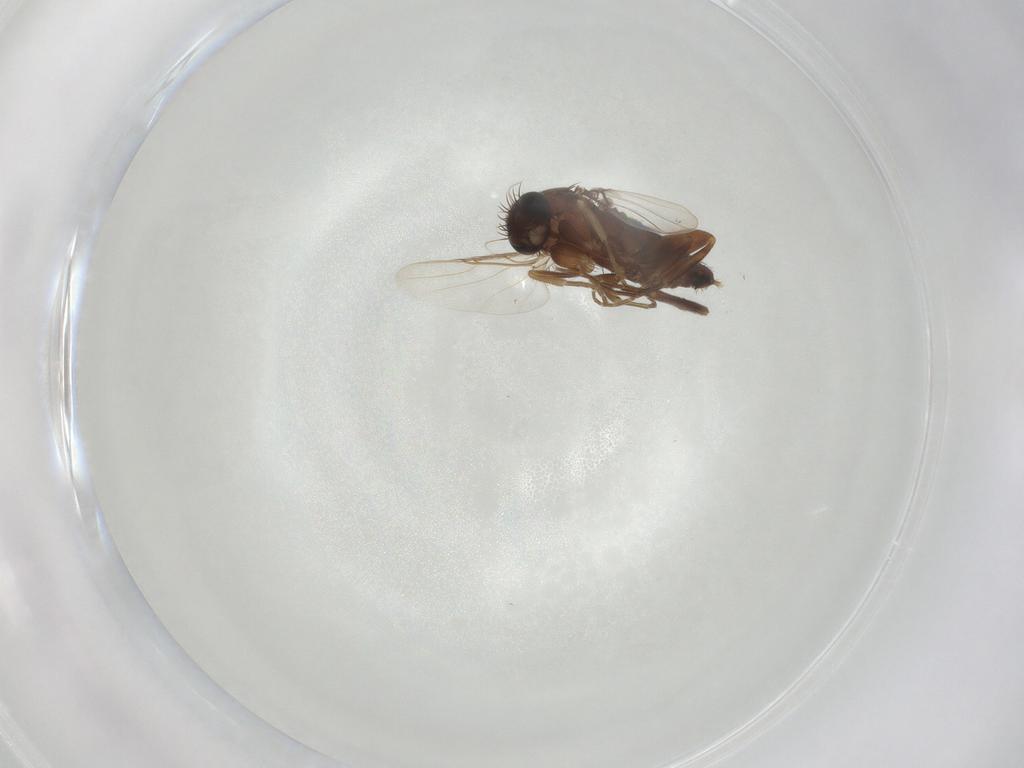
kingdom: Animalia
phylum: Arthropoda
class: Insecta
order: Diptera
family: Phoridae
